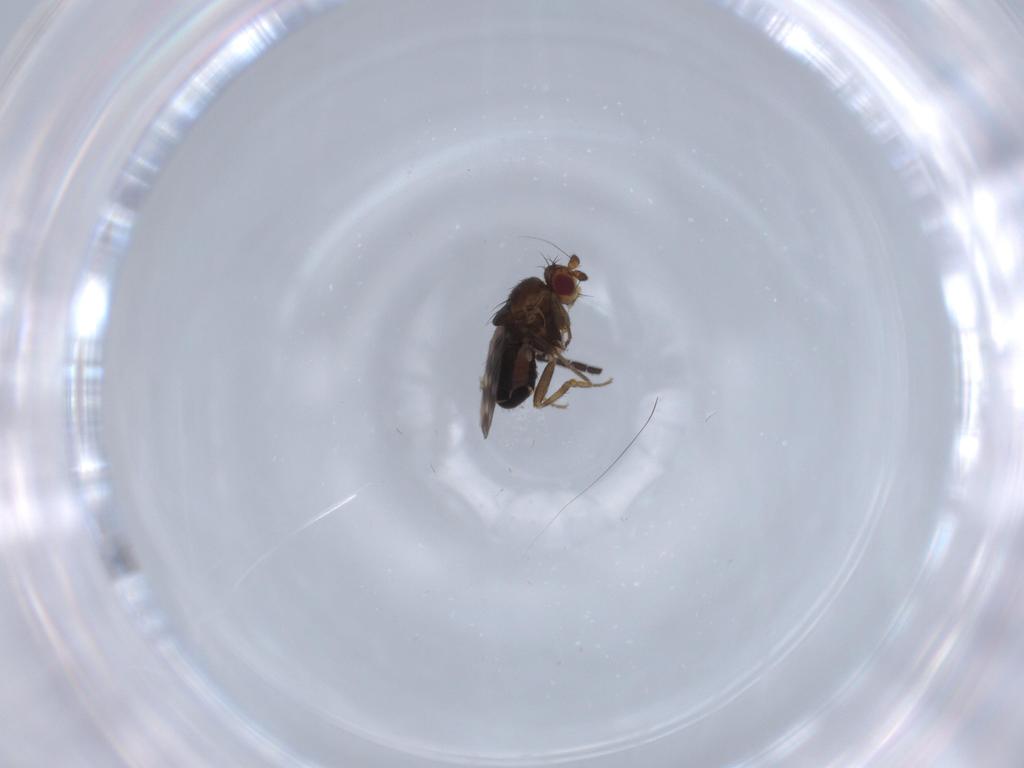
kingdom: Animalia
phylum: Arthropoda
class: Insecta
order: Diptera
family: Sphaeroceridae
